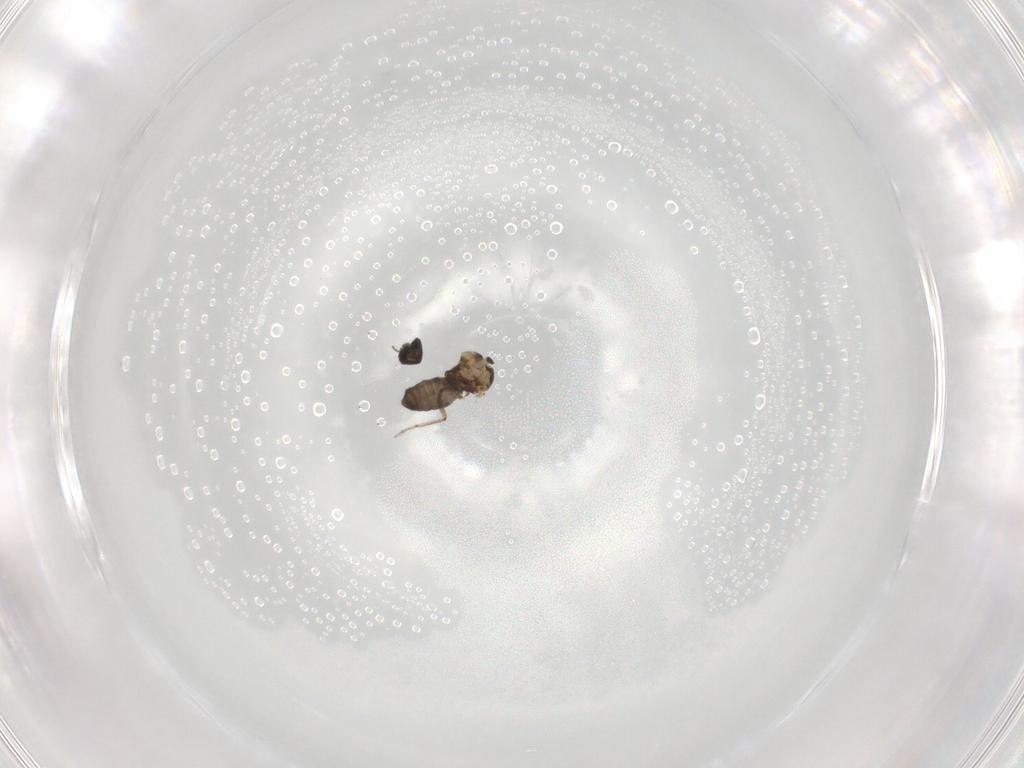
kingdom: Animalia
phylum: Arthropoda
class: Insecta
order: Diptera
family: Ceratopogonidae
